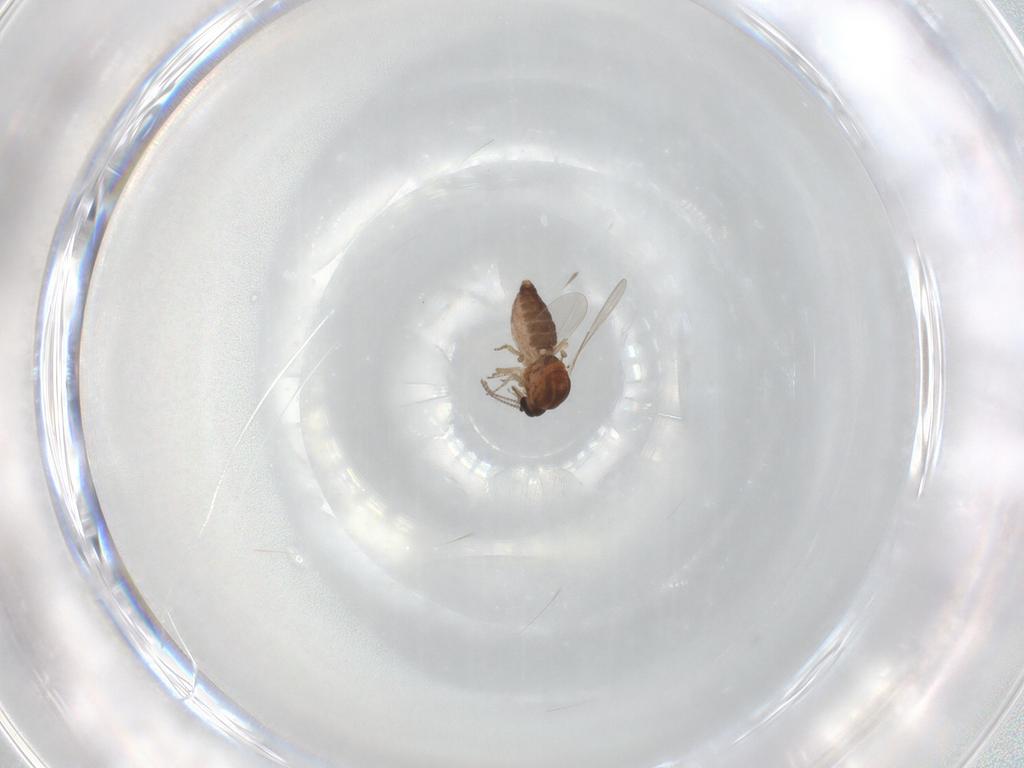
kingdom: Animalia
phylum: Arthropoda
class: Insecta
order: Diptera
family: Ceratopogonidae
